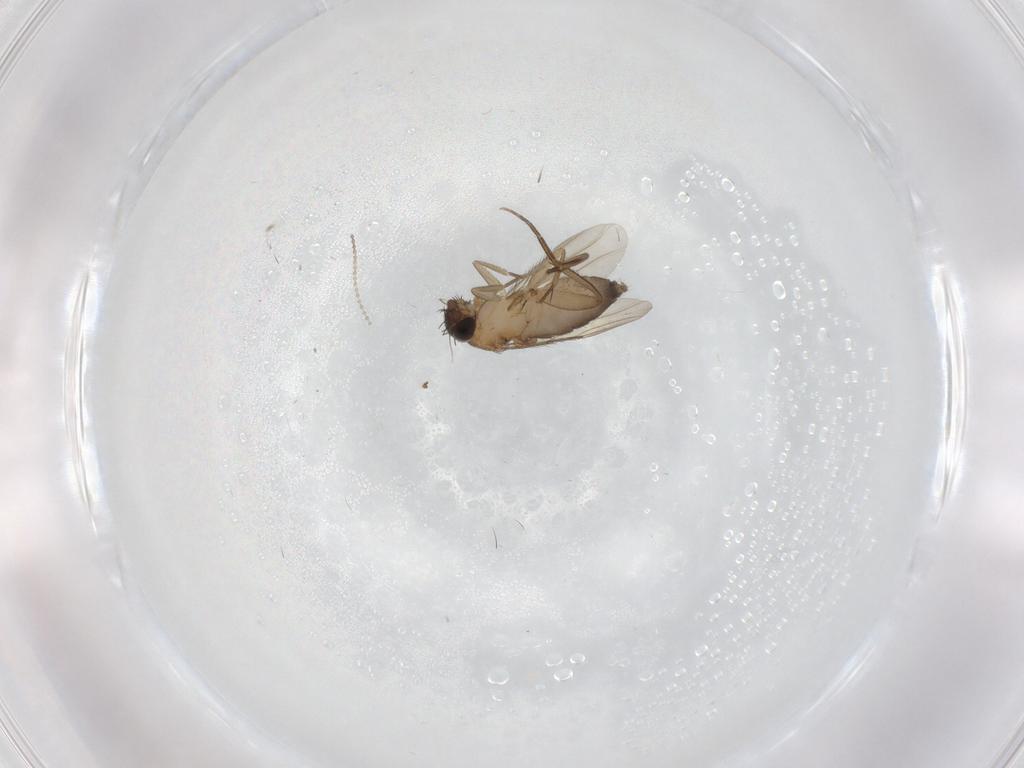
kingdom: Animalia
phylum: Arthropoda
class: Insecta
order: Diptera
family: Phoridae
